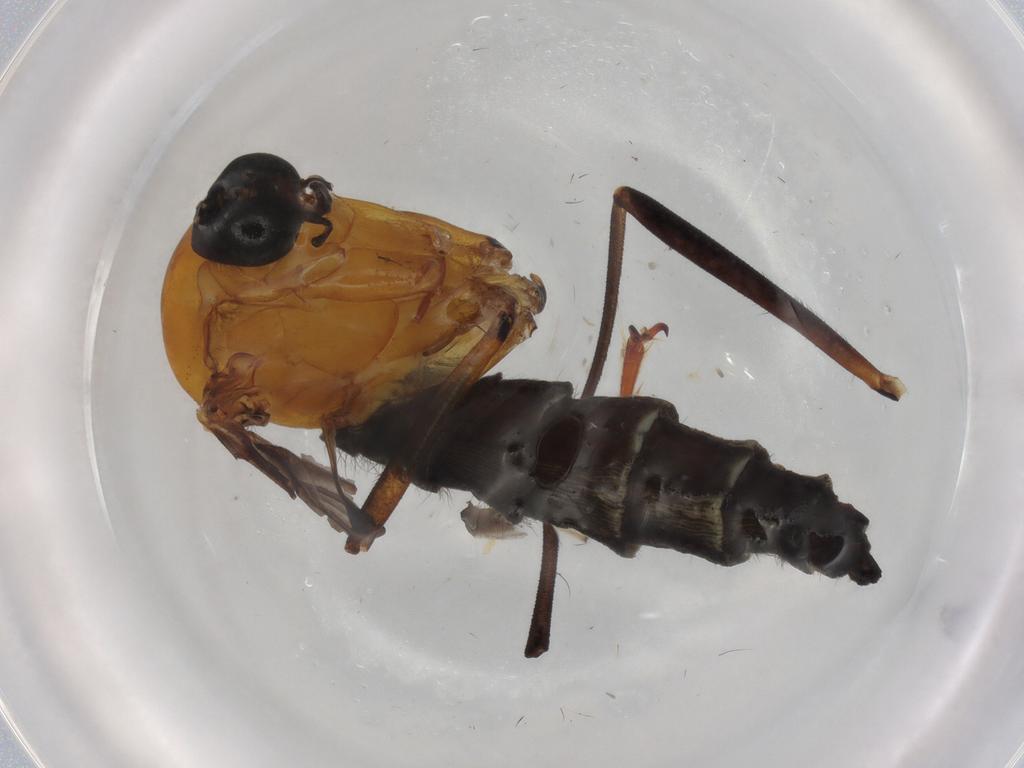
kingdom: Animalia
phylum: Arthropoda
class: Insecta
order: Diptera
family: Sciaridae
